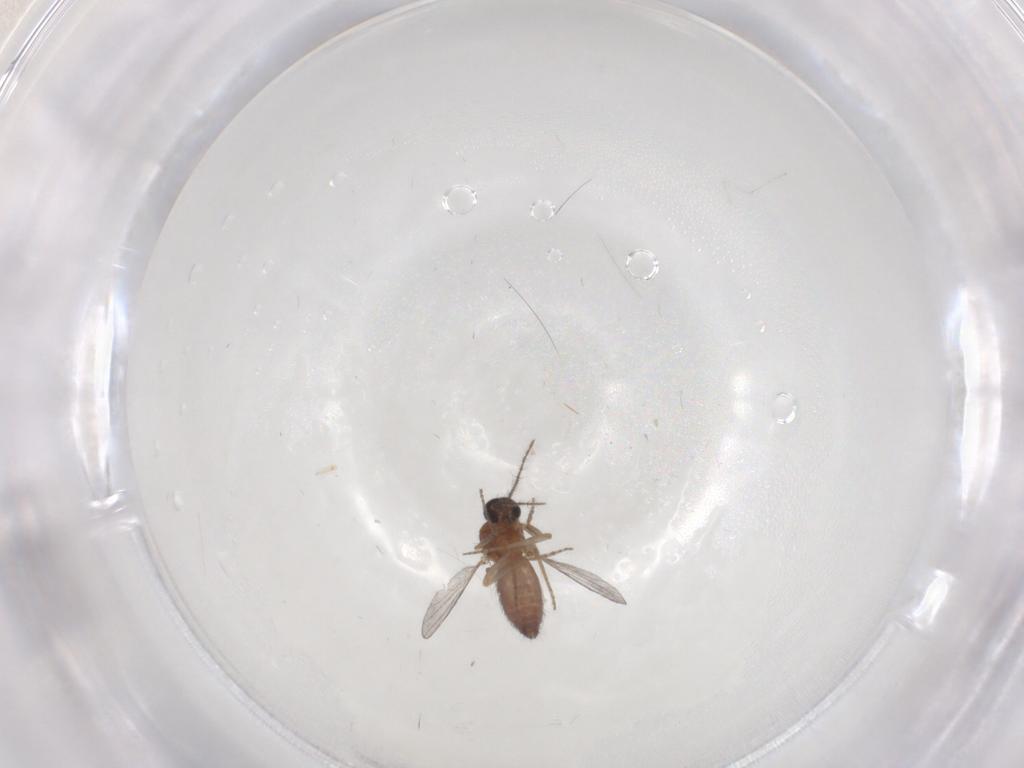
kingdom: Animalia
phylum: Arthropoda
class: Insecta
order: Diptera
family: Ceratopogonidae
